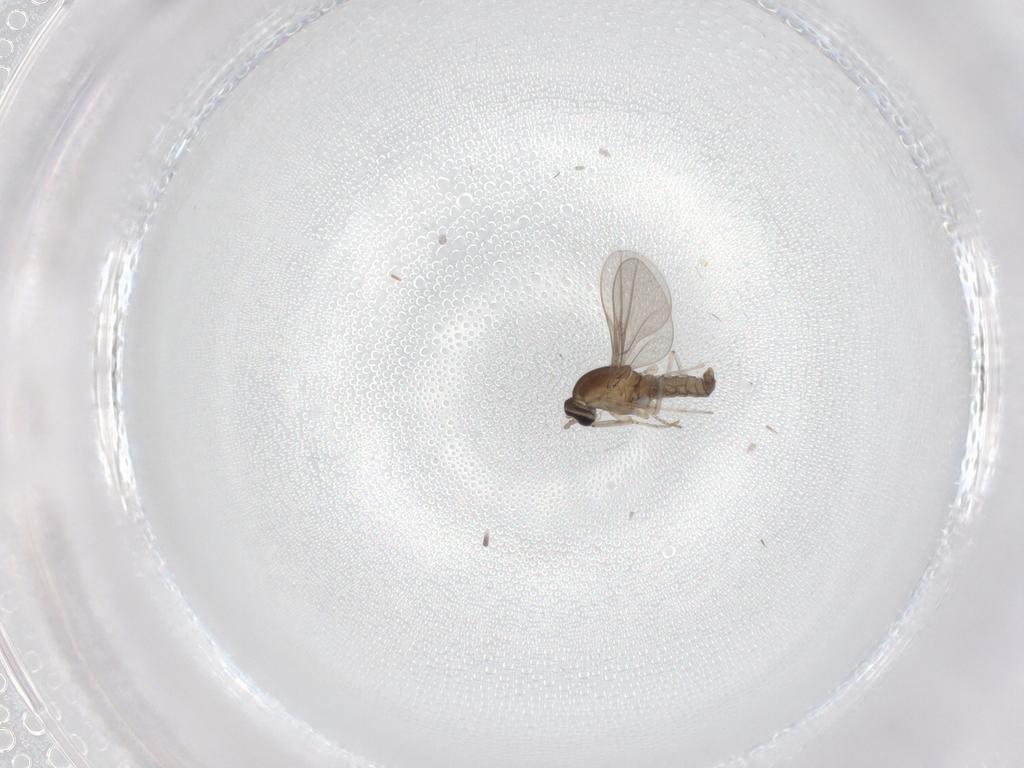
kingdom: Animalia
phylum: Arthropoda
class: Insecta
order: Diptera
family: Cecidomyiidae
